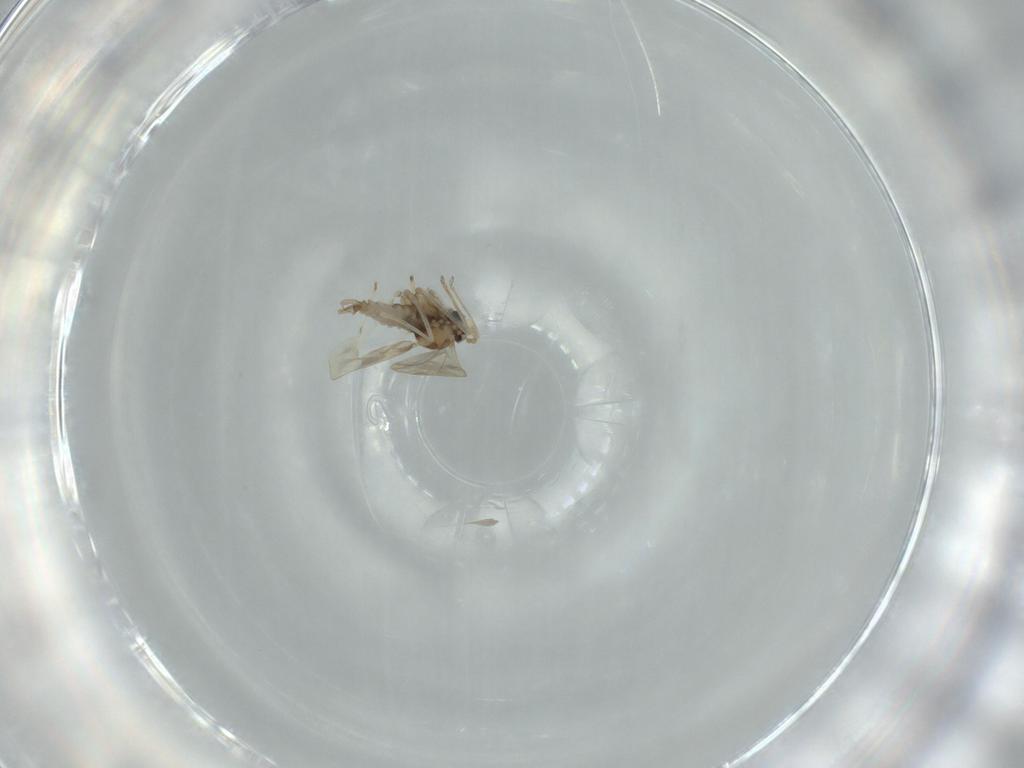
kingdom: Animalia
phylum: Arthropoda
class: Insecta
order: Diptera
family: Cecidomyiidae
